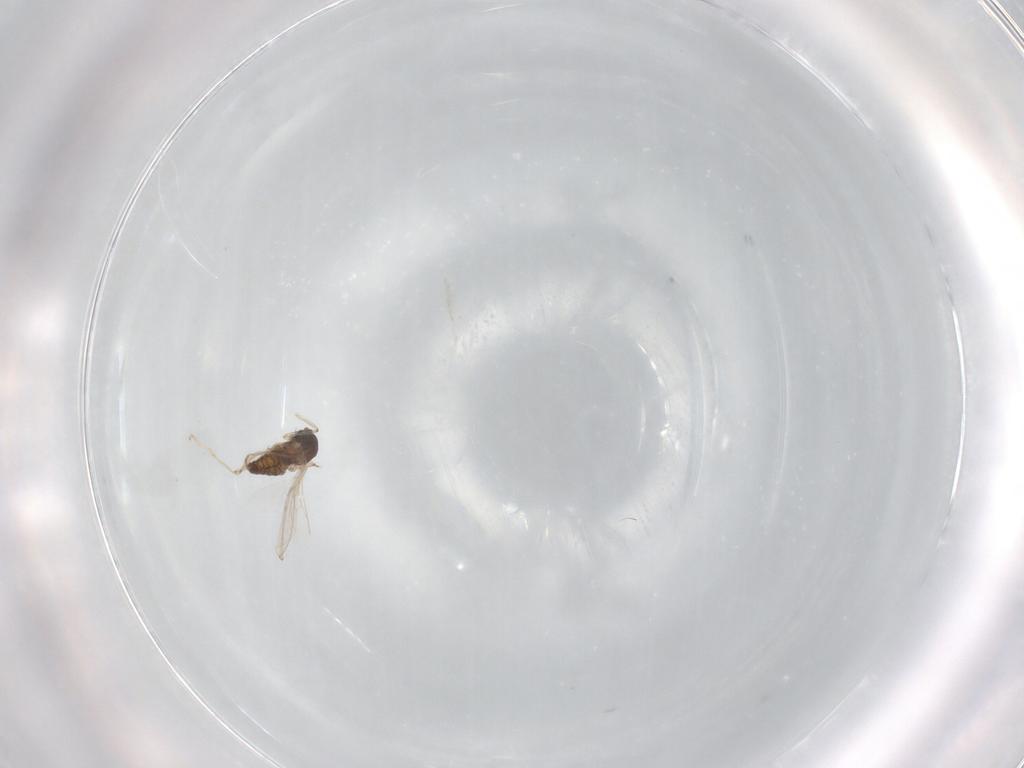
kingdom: Animalia
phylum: Arthropoda
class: Insecta
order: Diptera
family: Cecidomyiidae
